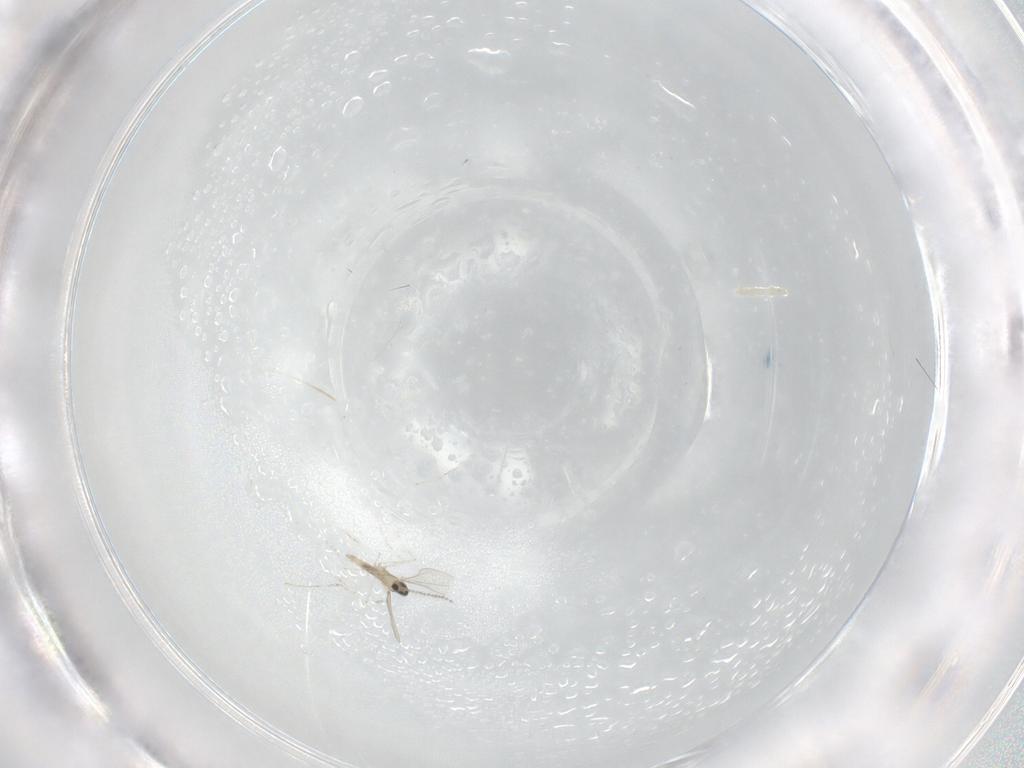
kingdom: Animalia
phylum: Arthropoda
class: Insecta
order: Diptera
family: Cecidomyiidae
